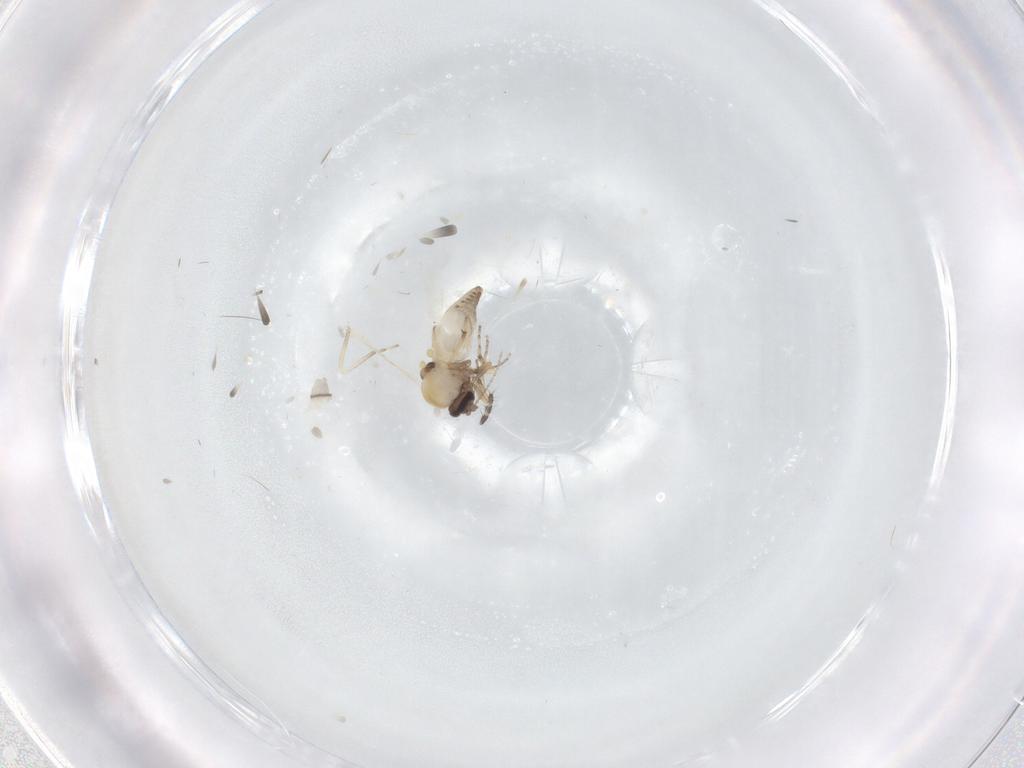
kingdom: Animalia
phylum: Arthropoda
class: Insecta
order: Diptera
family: Ceratopogonidae
